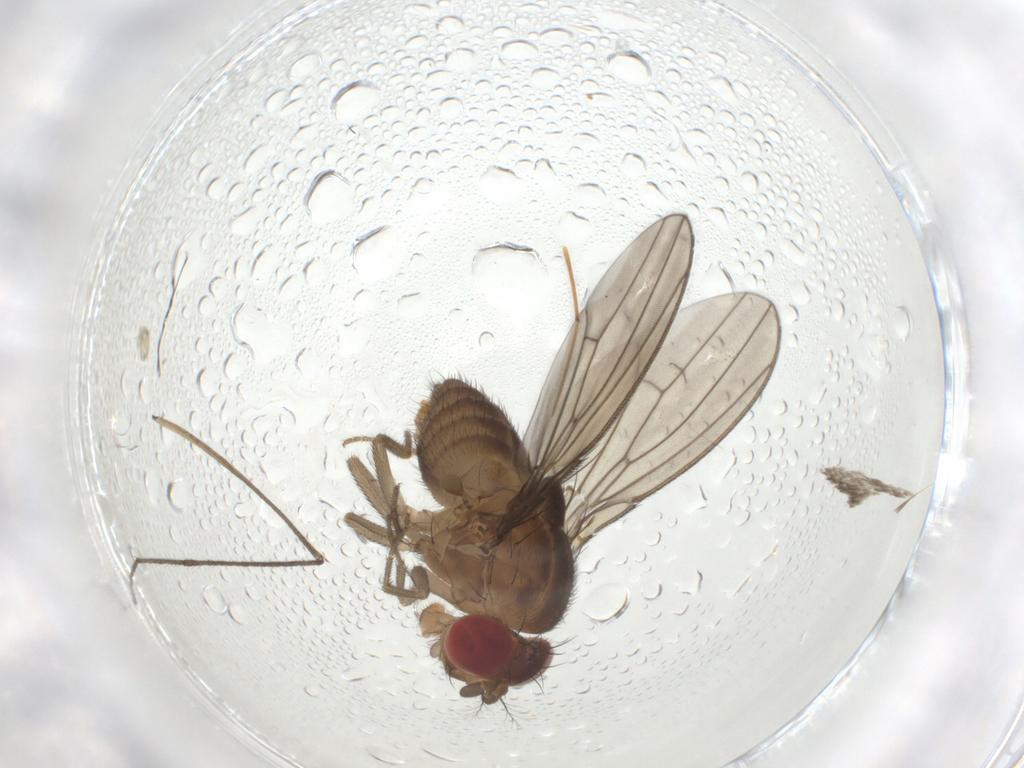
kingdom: Animalia
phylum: Arthropoda
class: Insecta
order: Diptera
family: Drosophilidae
